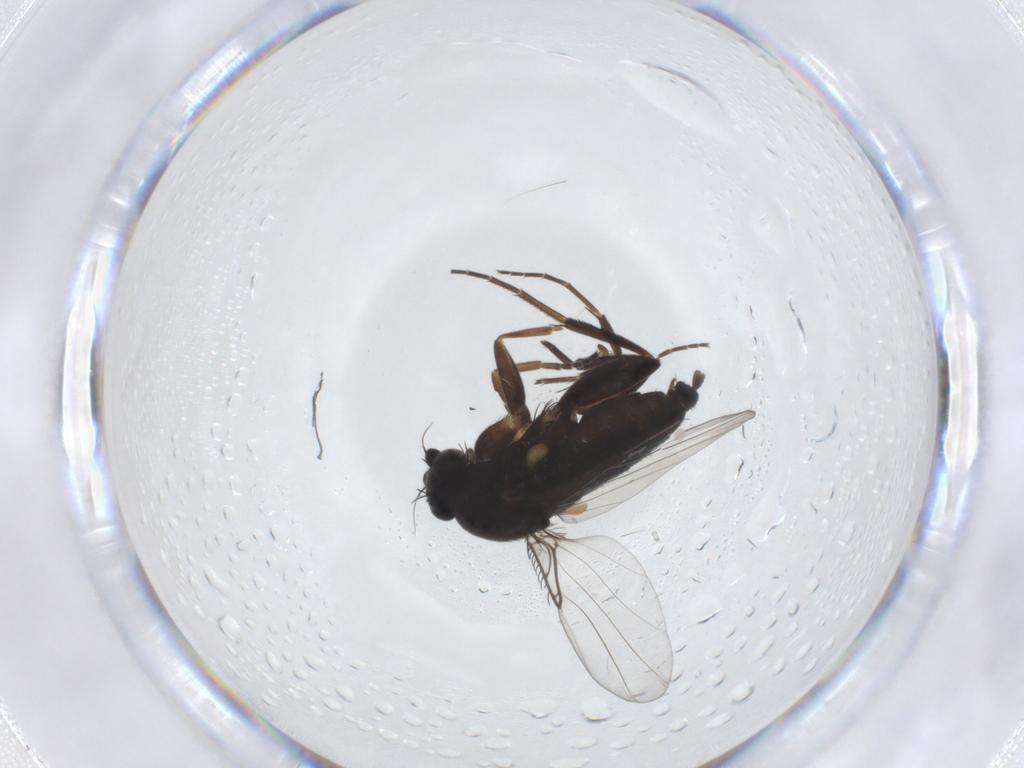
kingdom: Animalia
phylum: Arthropoda
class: Insecta
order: Diptera
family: Phoridae
